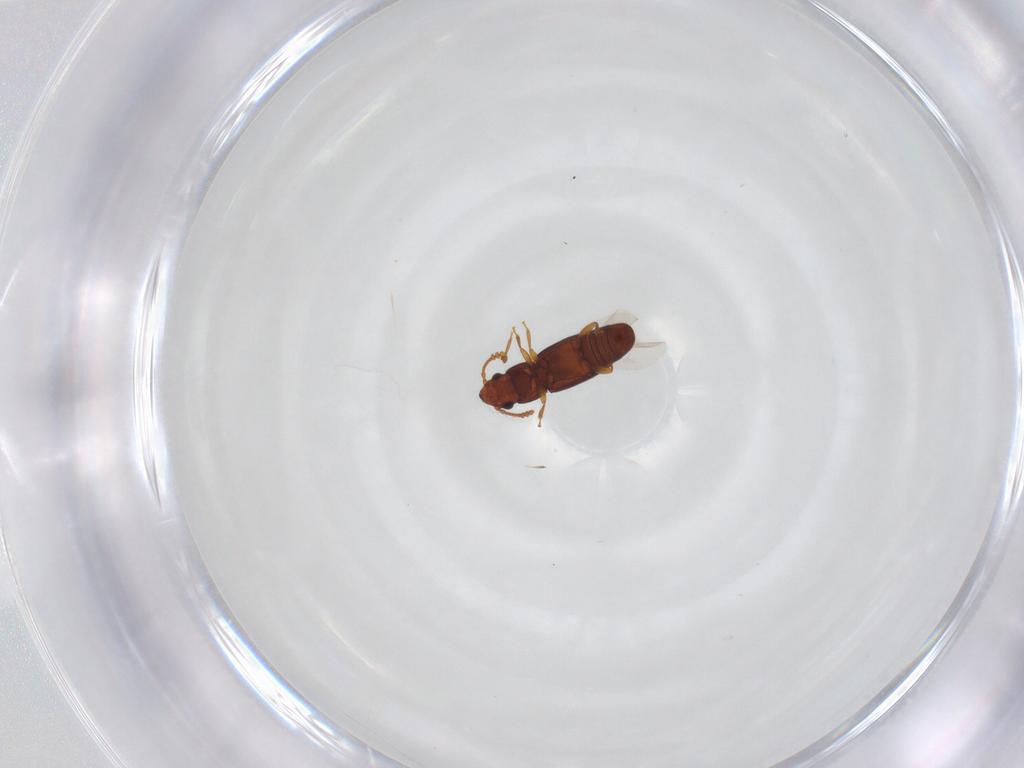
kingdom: Animalia
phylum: Arthropoda
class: Insecta
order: Coleoptera
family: Smicripidae
